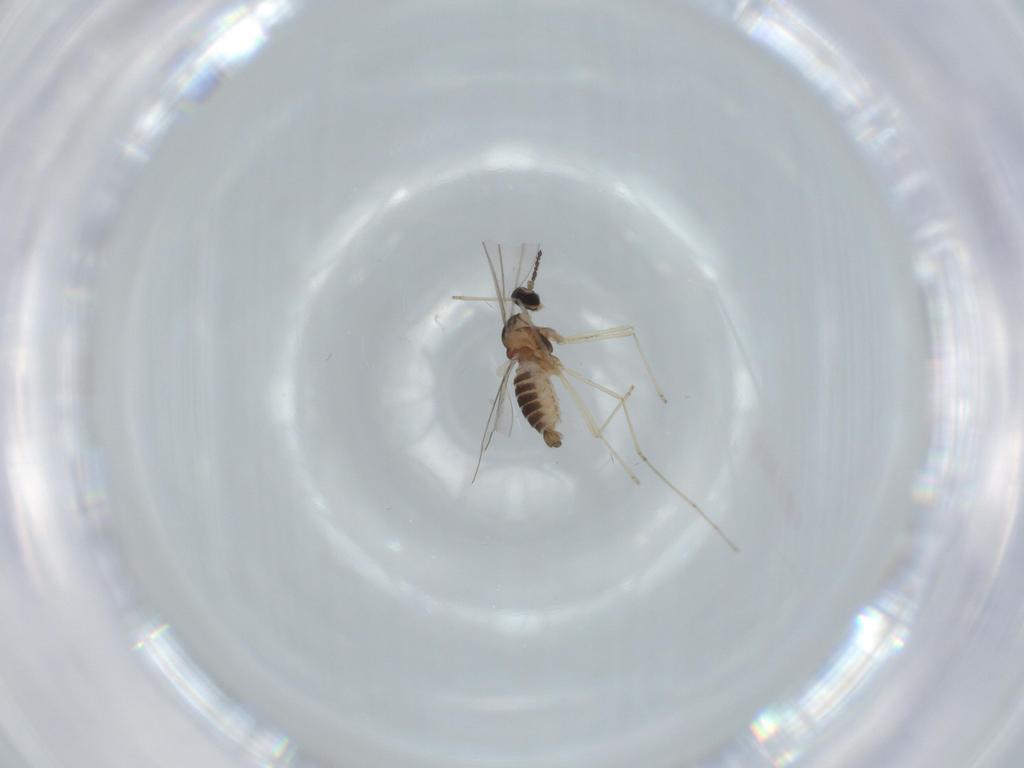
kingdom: Animalia
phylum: Arthropoda
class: Insecta
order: Diptera
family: Cecidomyiidae
